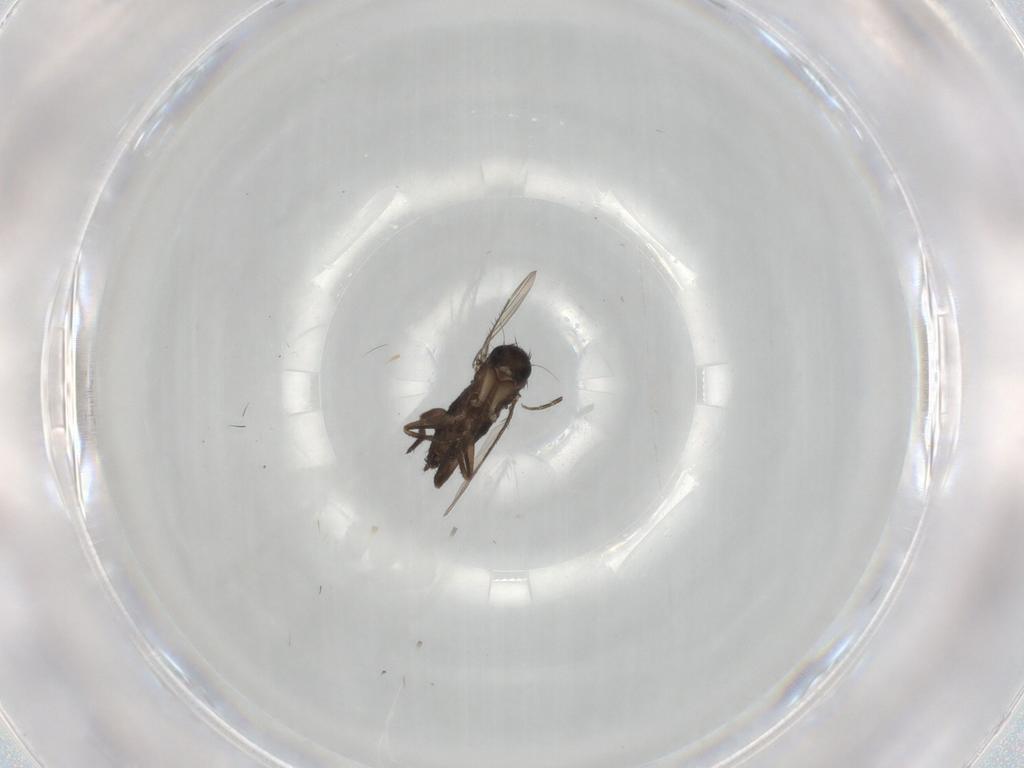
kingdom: Animalia
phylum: Arthropoda
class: Insecta
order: Diptera
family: Phoridae
